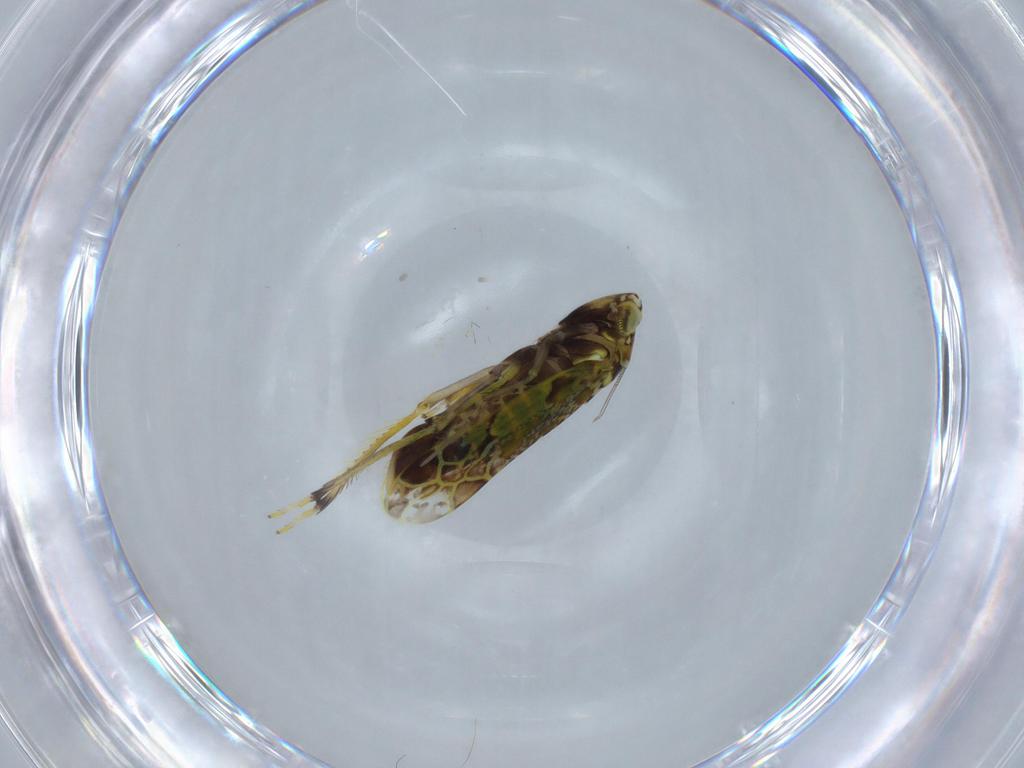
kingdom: Animalia
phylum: Arthropoda
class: Insecta
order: Hemiptera
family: Cicadellidae
